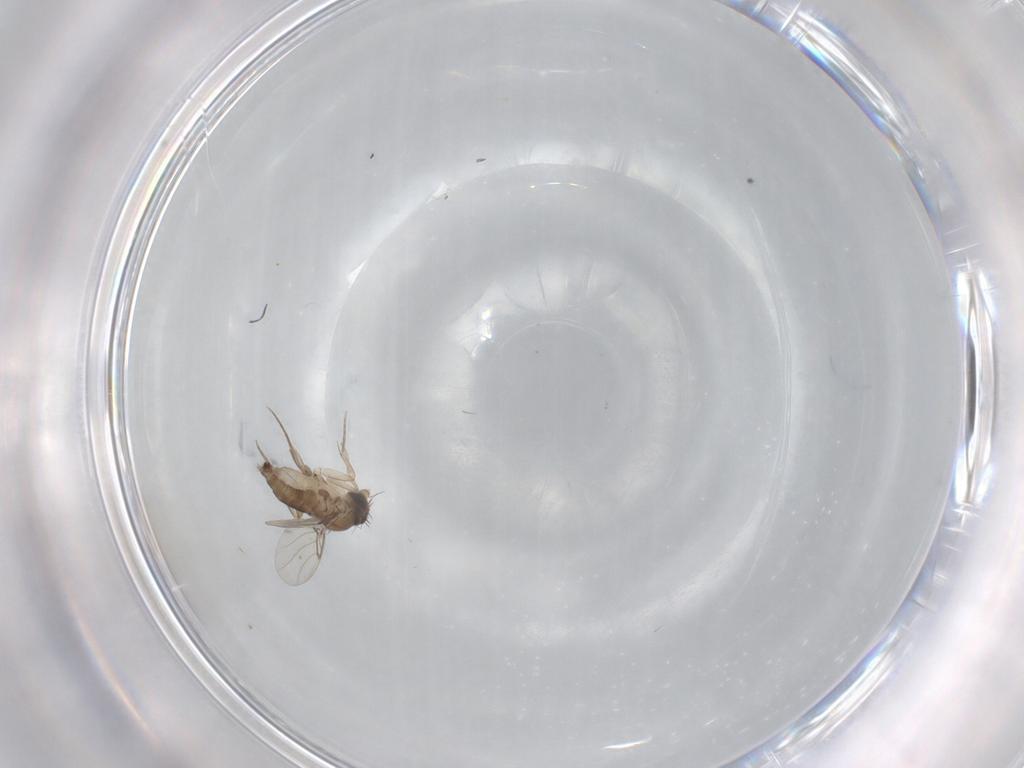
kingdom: Animalia
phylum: Arthropoda
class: Insecta
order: Diptera
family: Phoridae
